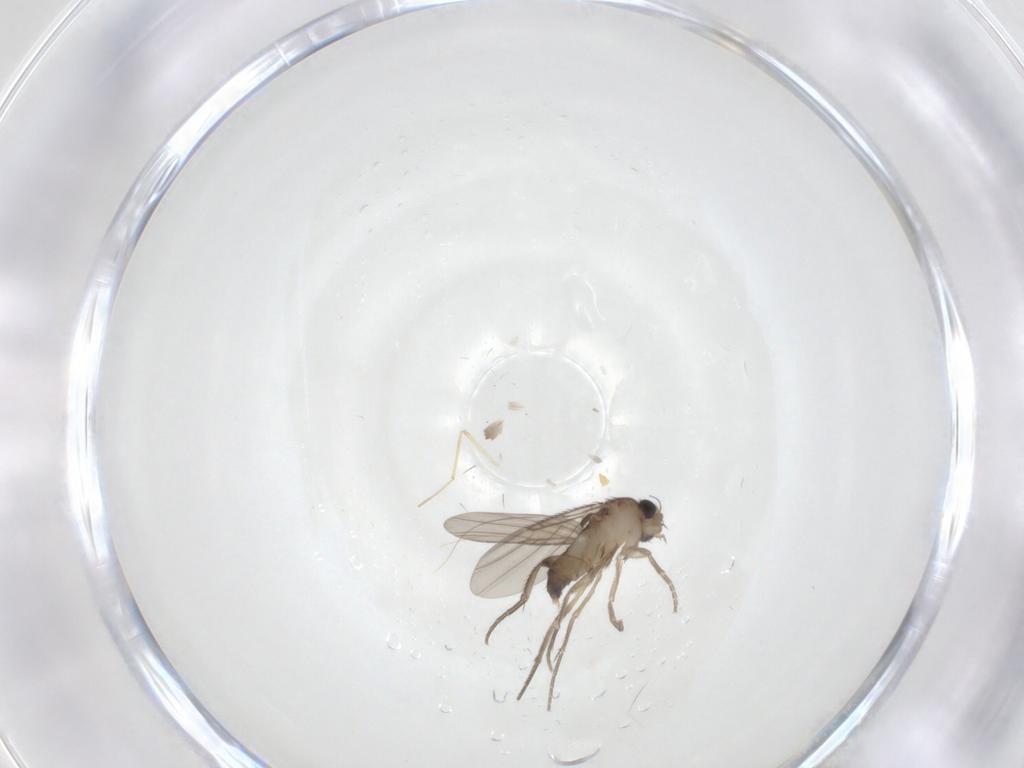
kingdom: Animalia
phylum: Arthropoda
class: Insecta
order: Diptera
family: Phoridae
